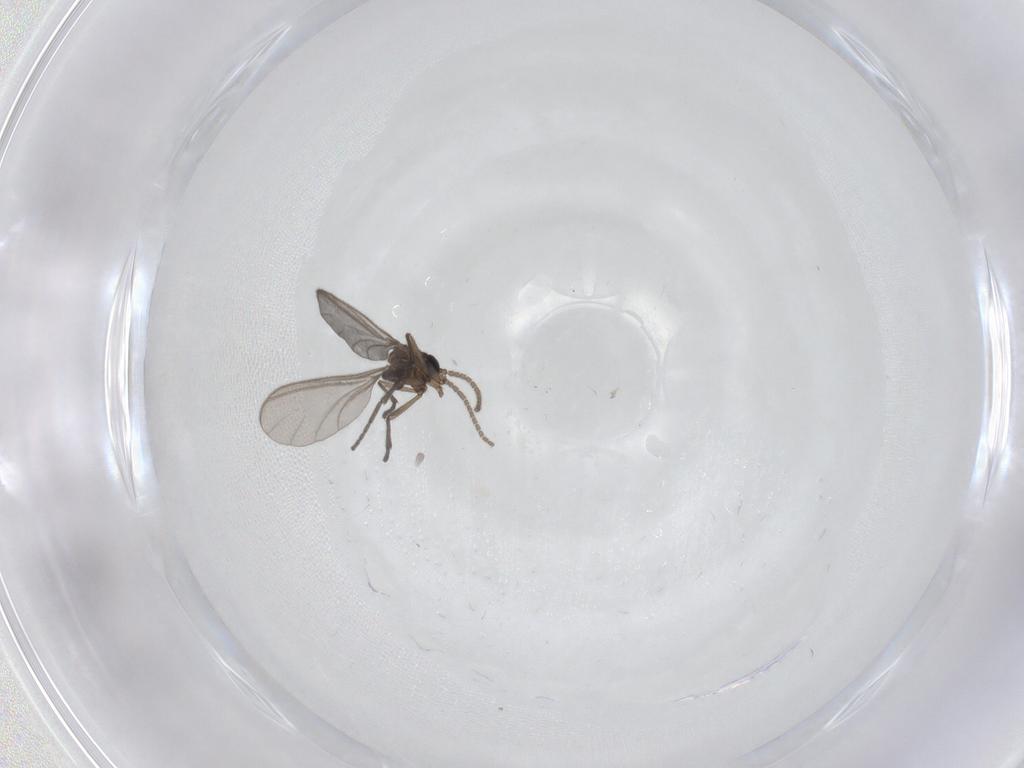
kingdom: Animalia
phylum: Arthropoda
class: Insecta
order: Diptera
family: Sciaridae
